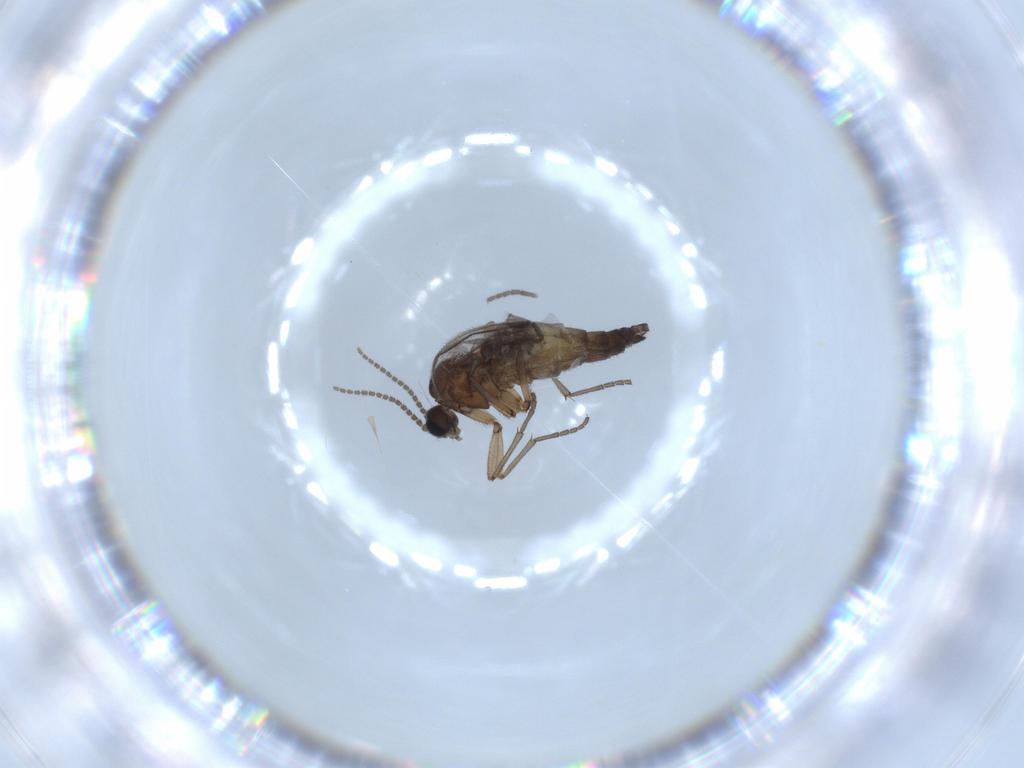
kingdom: Animalia
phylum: Arthropoda
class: Insecta
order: Diptera
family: Sciaridae
